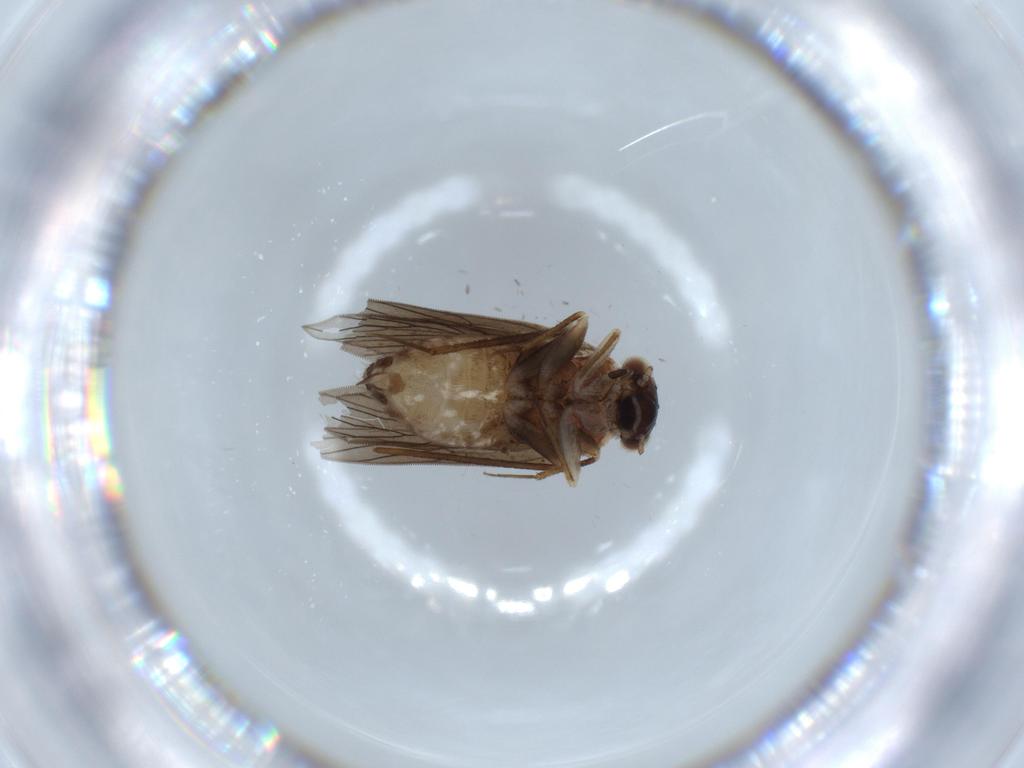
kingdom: Animalia
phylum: Arthropoda
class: Insecta
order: Psocodea
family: Lepidopsocidae
